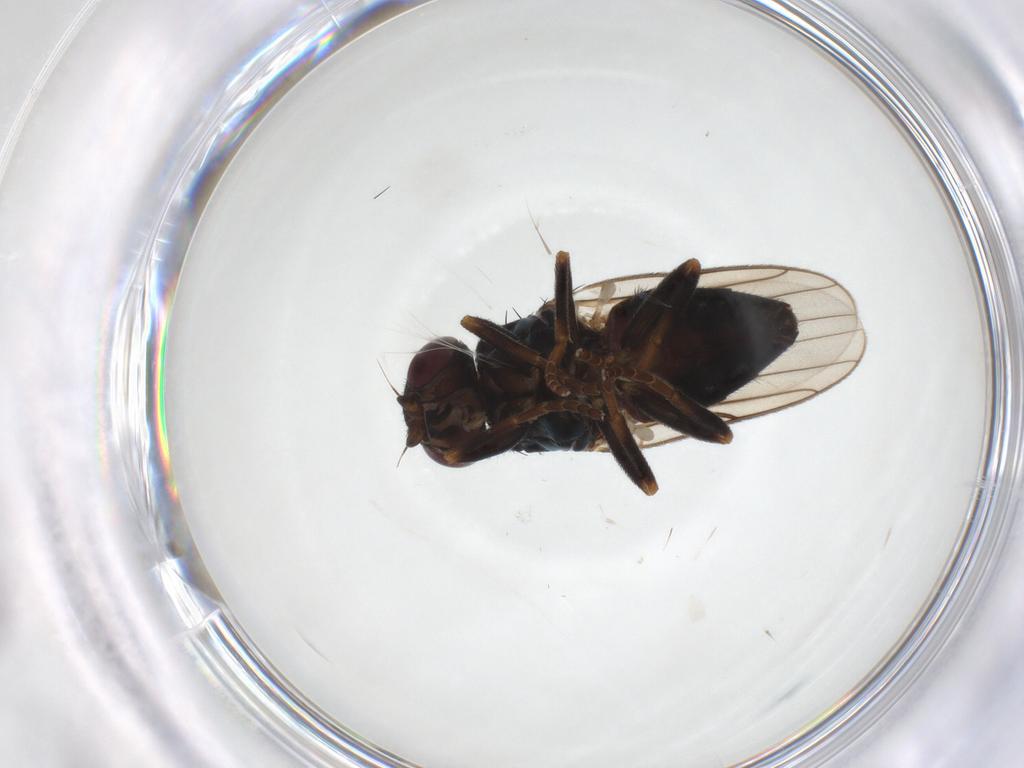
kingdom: Animalia
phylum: Arthropoda
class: Insecta
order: Diptera
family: Chloropidae
